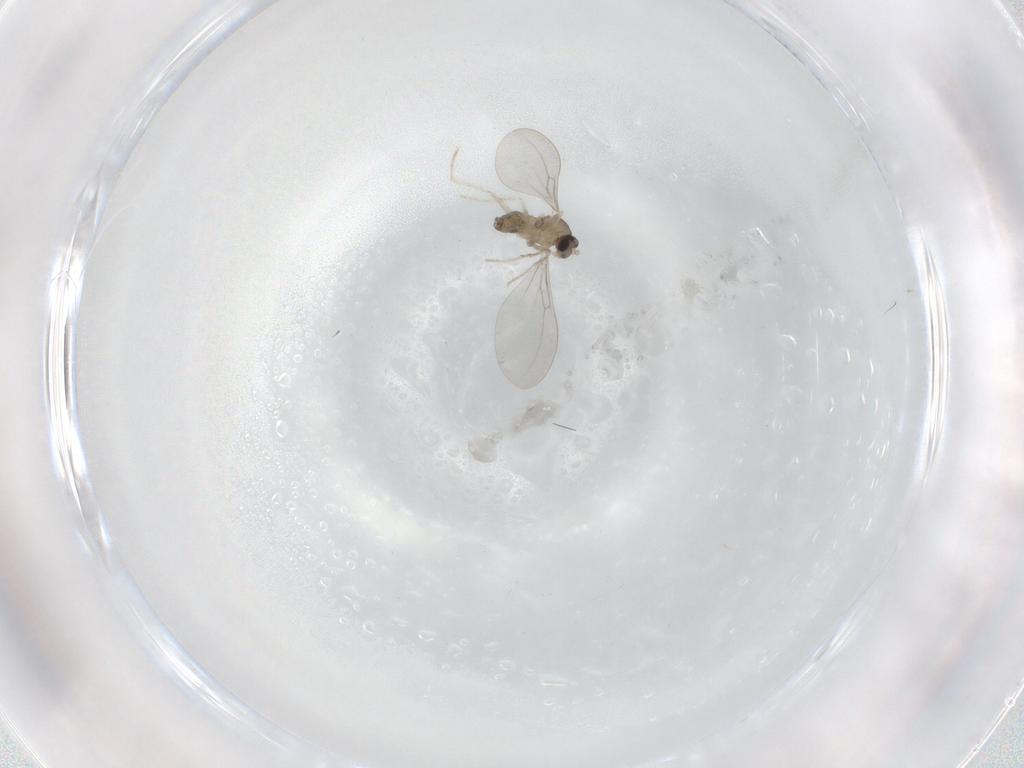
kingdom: Animalia
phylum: Arthropoda
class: Insecta
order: Diptera
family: Cecidomyiidae
